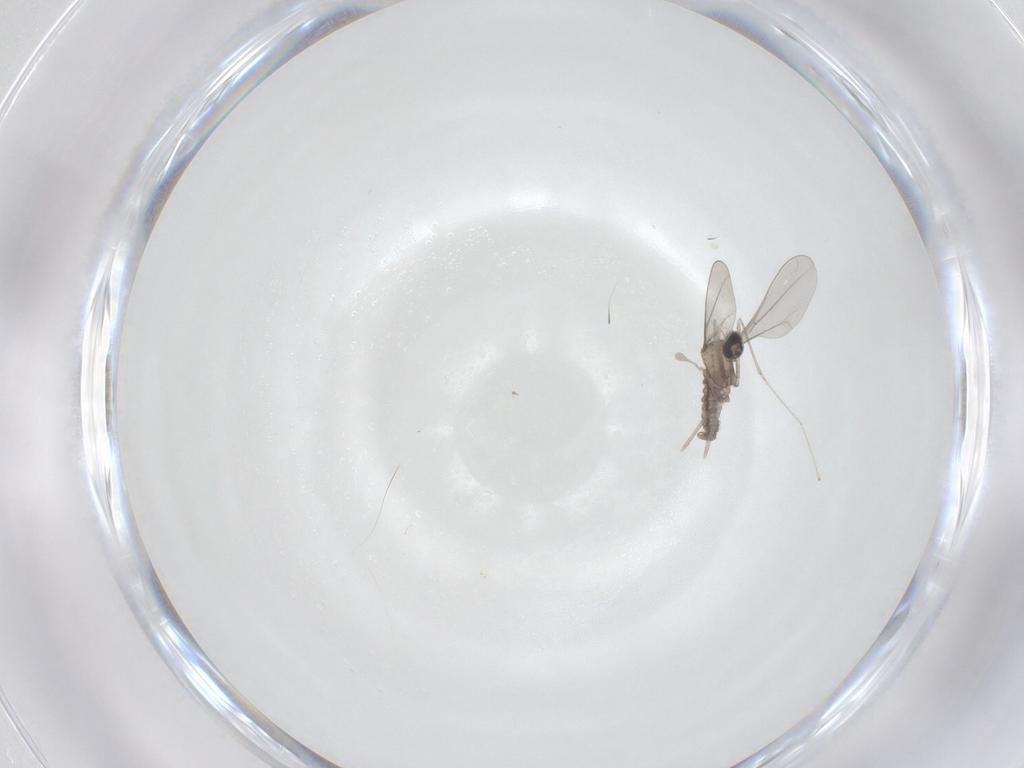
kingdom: Animalia
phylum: Arthropoda
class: Insecta
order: Diptera
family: Cecidomyiidae
